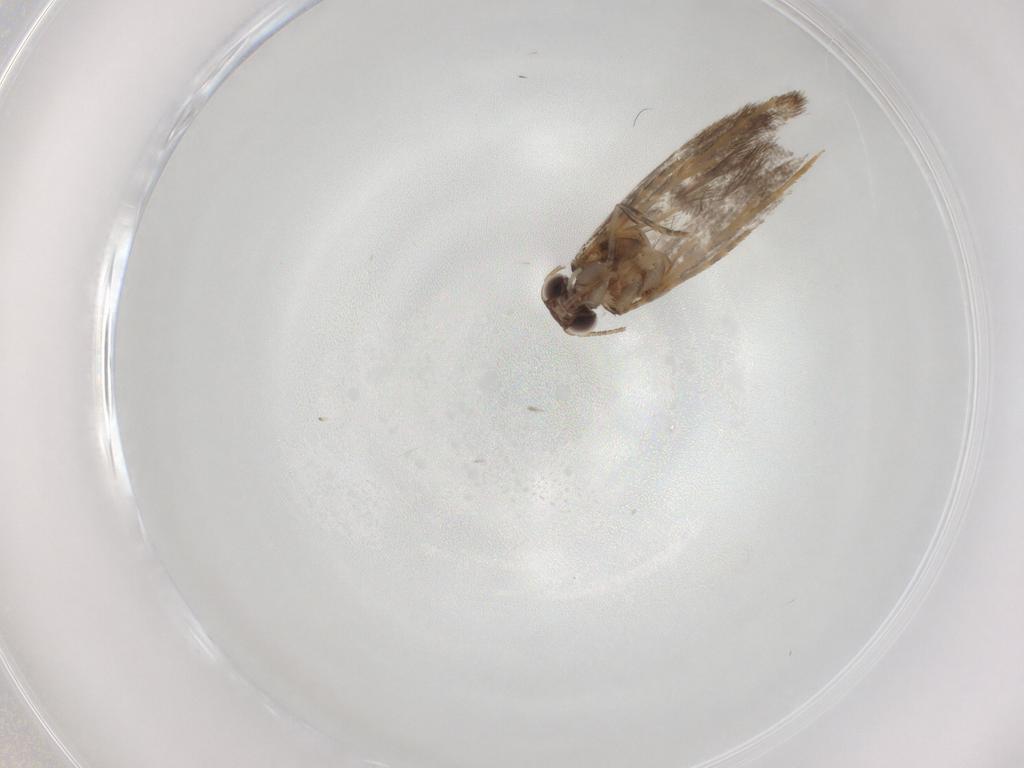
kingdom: Animalia
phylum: Arthropoda
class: Insecta
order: Lepidoptera
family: Tineidae
